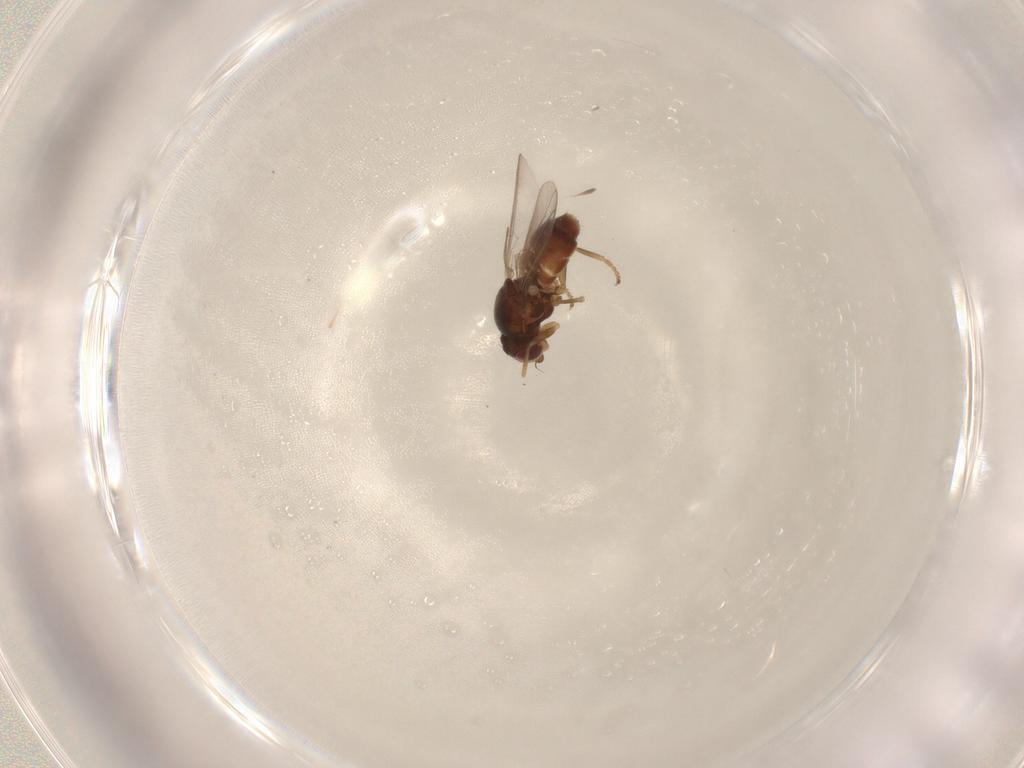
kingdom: Animalia
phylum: Arthropoda
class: Insecta
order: Diptera
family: Chloropidae
